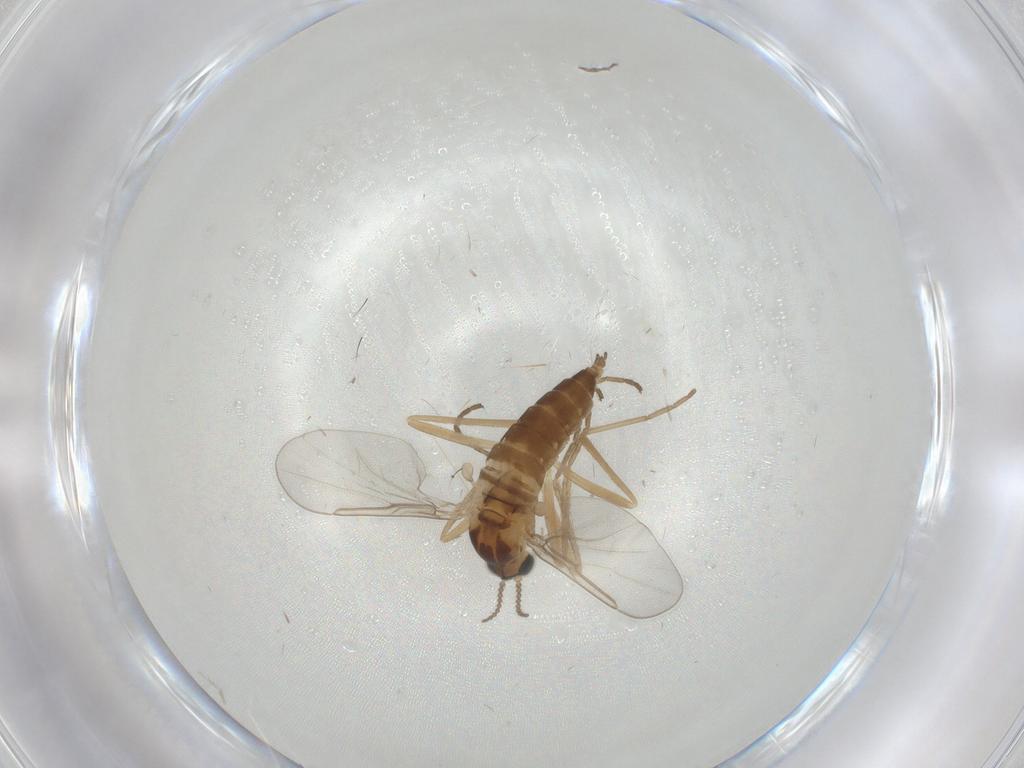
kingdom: Animalia
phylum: Arthropoda
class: Insecta
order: Diptera
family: Cecidomyiidae
